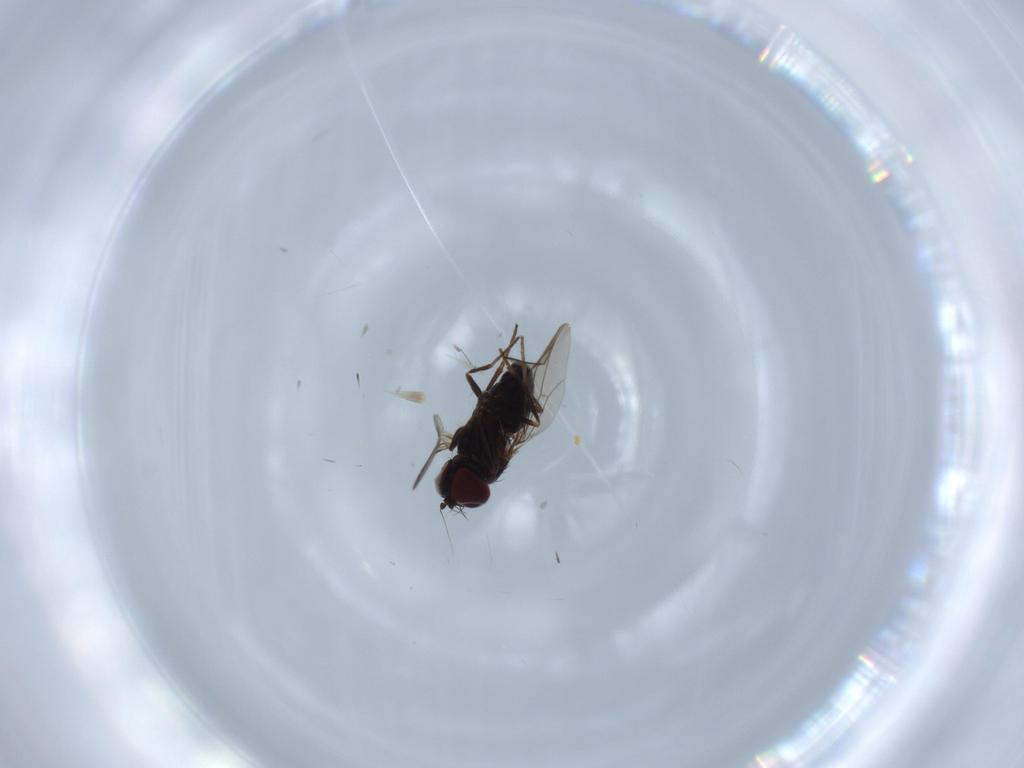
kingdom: Animalia
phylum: Arthropoda
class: Insecta
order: Diptera
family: Dolichopodidae
